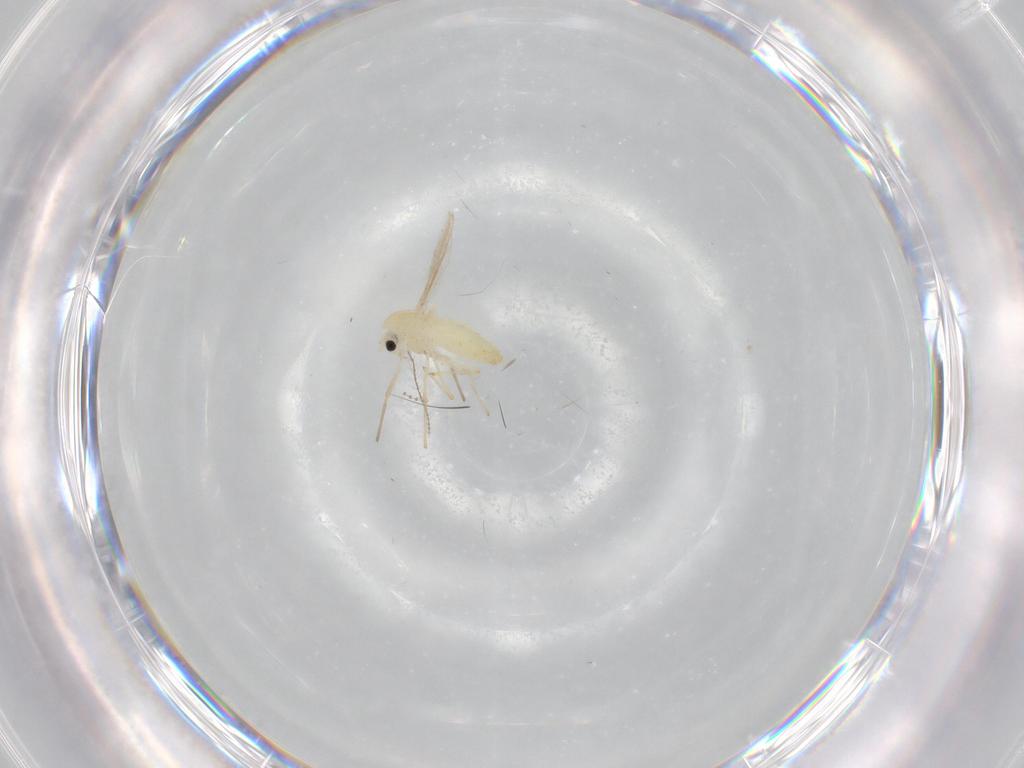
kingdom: Animalia
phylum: Arthropoda
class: Insecta
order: Diptera
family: Chironomidae
